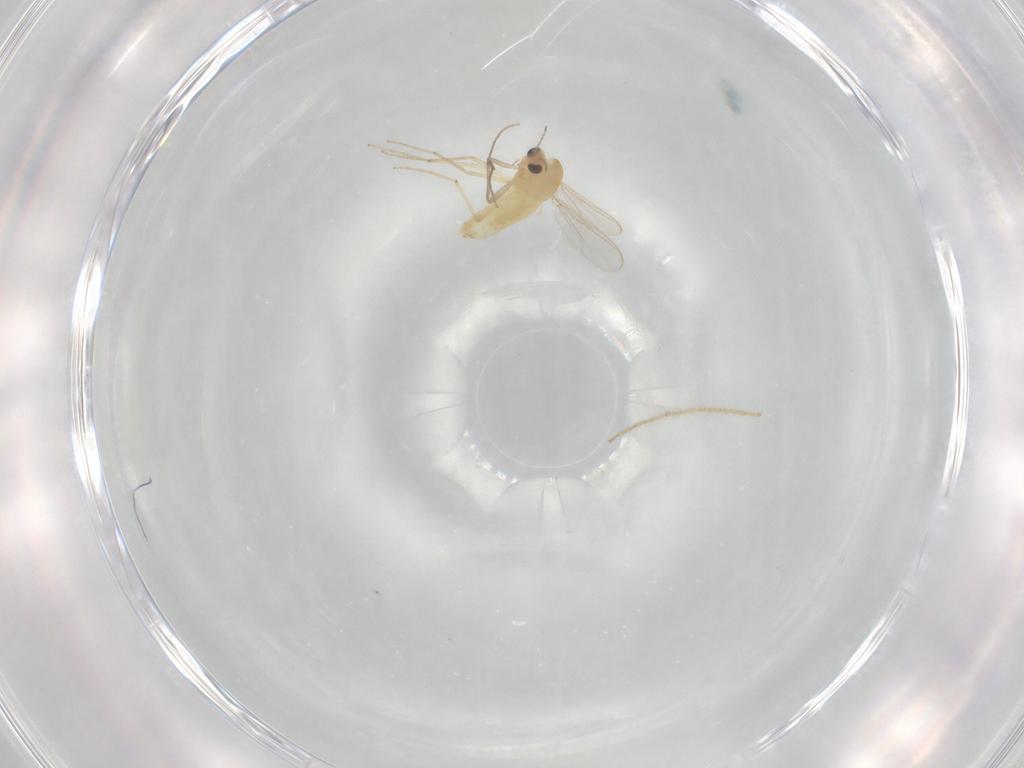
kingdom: Animalia
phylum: Arthropoda
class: Insecta
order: Diptera
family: Chironomidae
